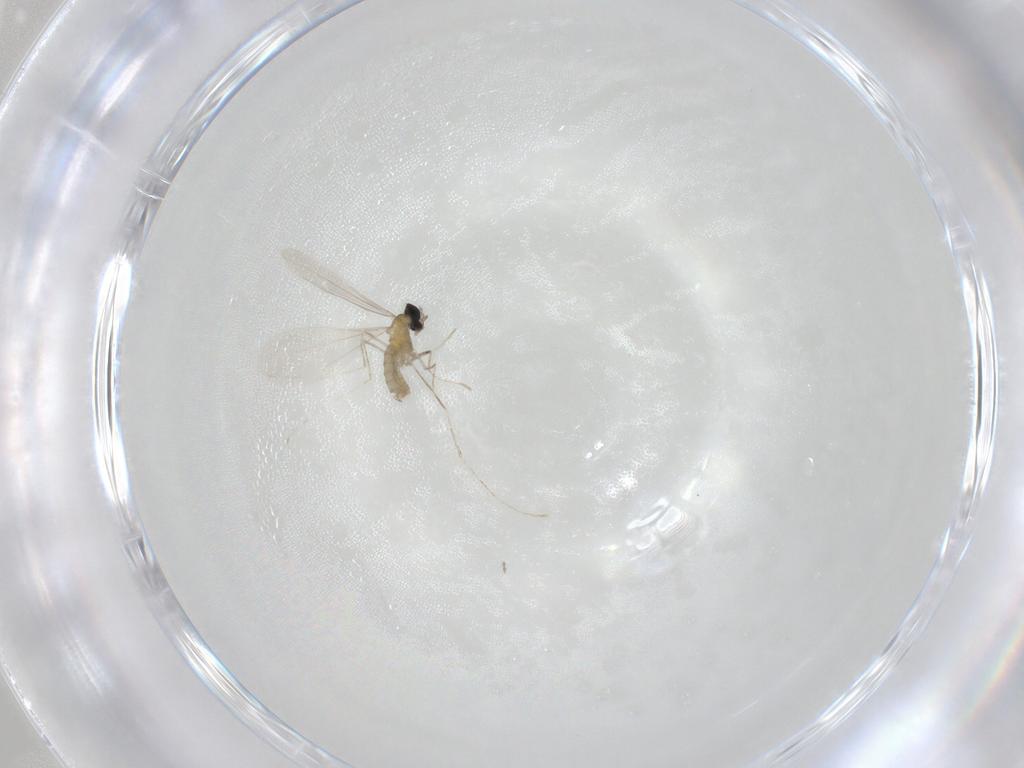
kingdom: Animalia
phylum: Arthropoda
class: Insecta
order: Diptera
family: Cecidomyiidae
